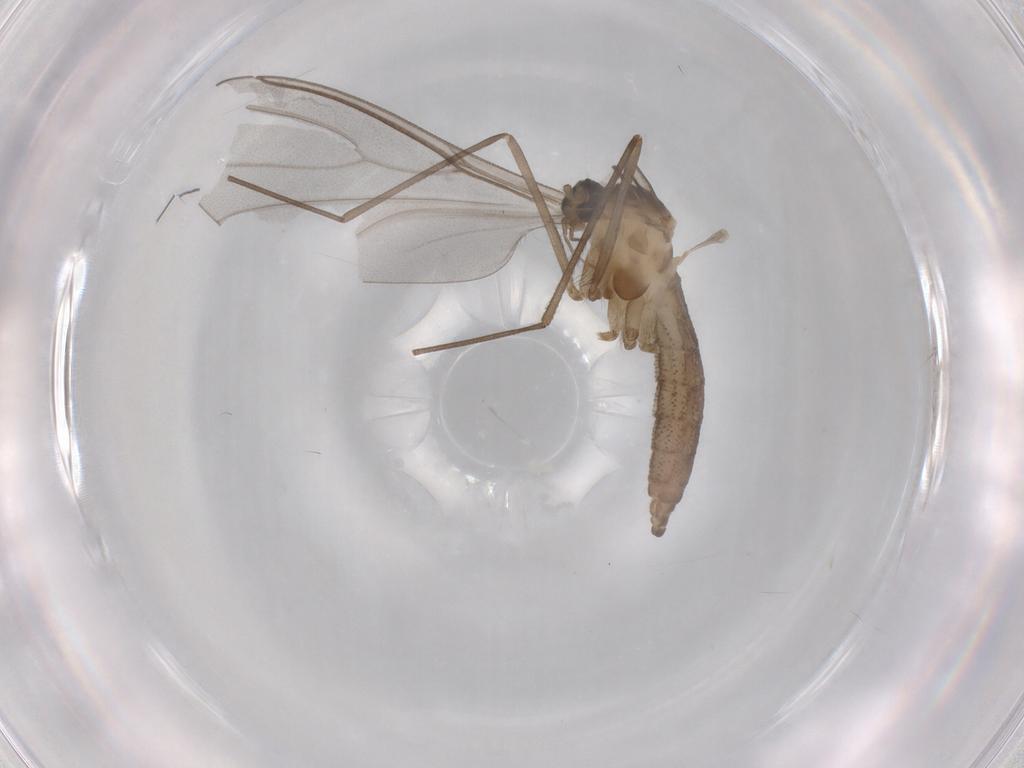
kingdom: Animalia
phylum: Arthropoda
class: Insecta
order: Diptera
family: Cecidomyiidae
